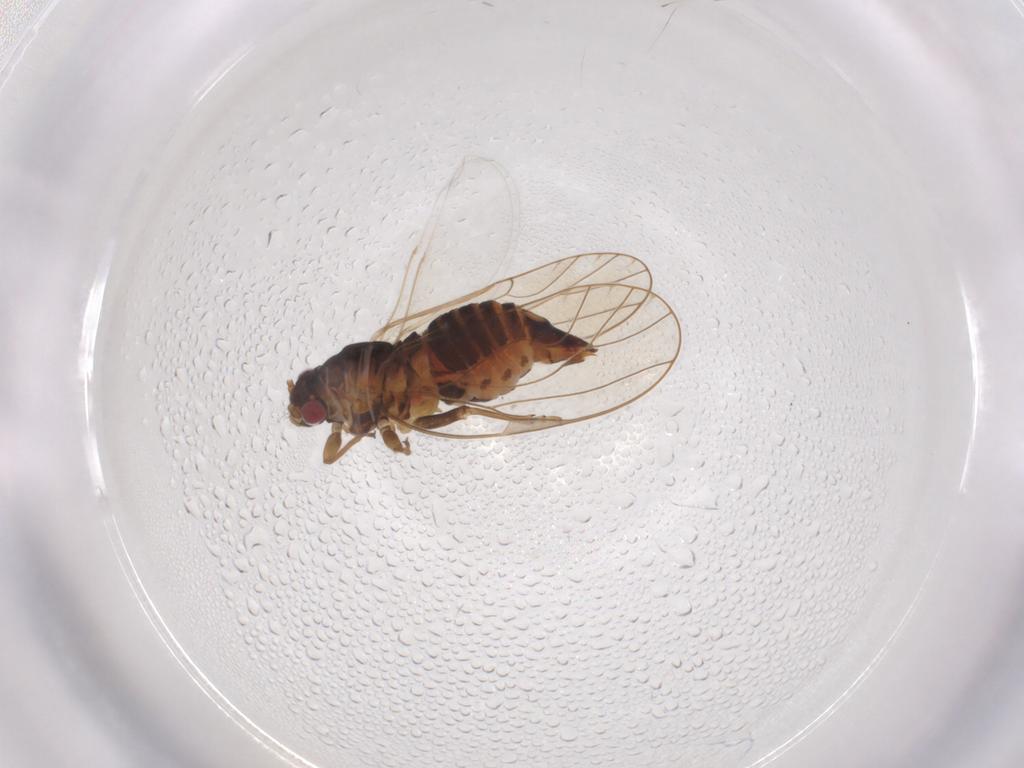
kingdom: Animalia
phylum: Arthropoda
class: Insecta
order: Hemiptera
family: Psyllidae
